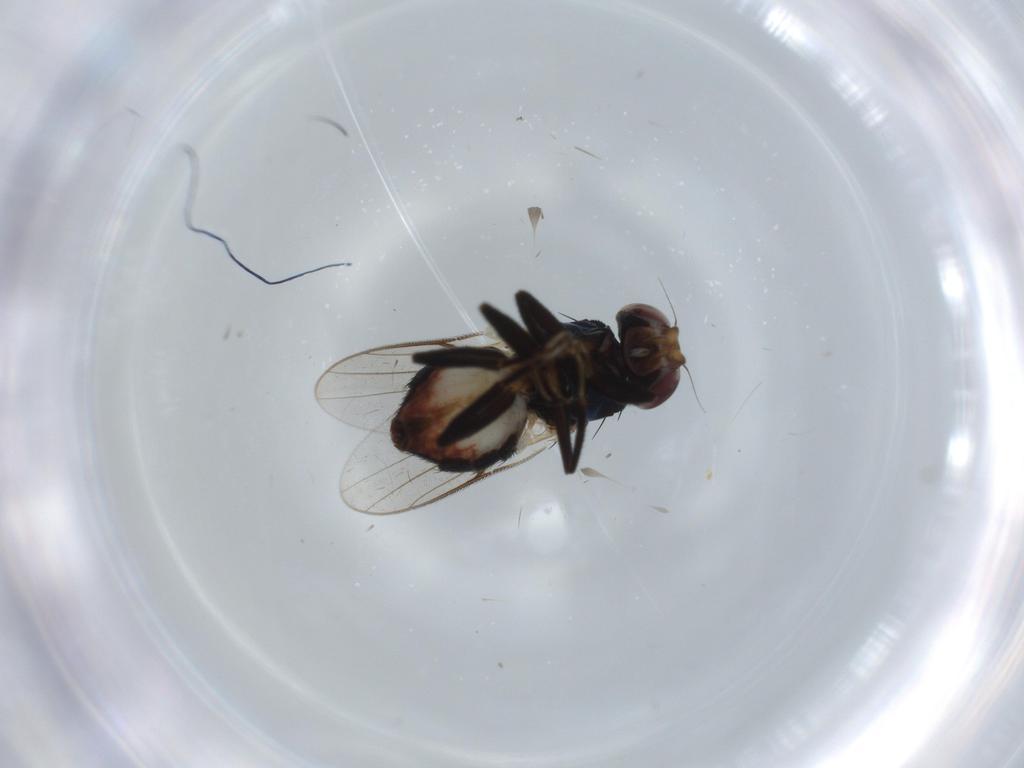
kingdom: Animalia
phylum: Arthropoda
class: Insecta
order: Diptera
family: Chloropidae
